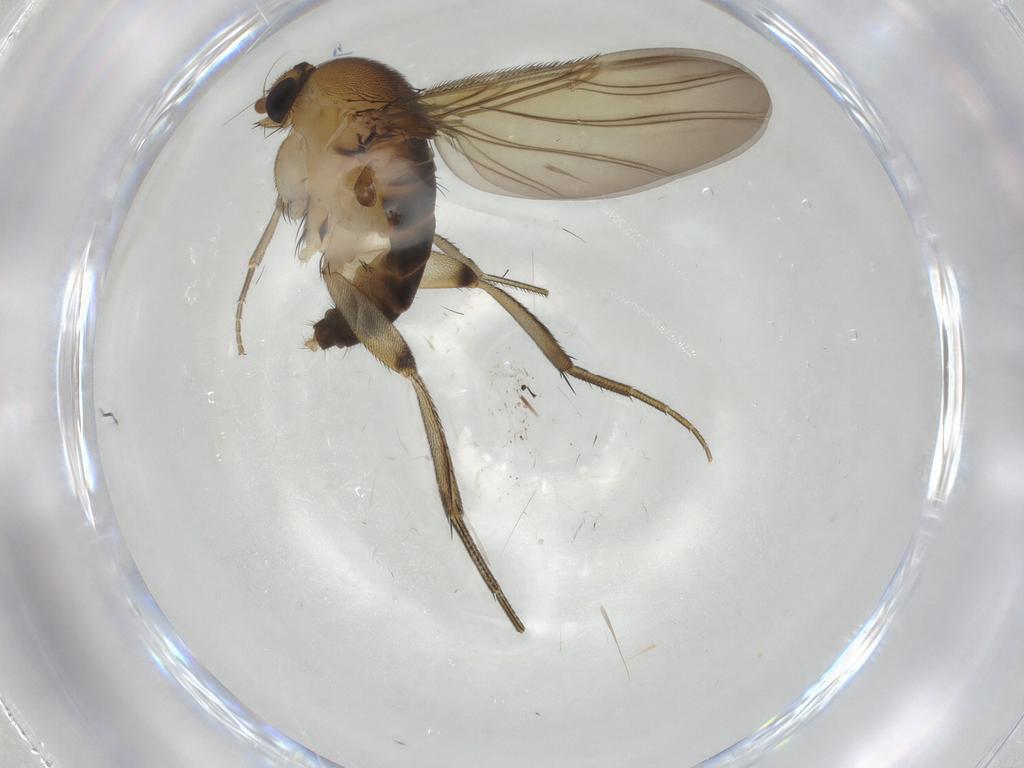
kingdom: Animalia
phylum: Arthropoda
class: Insecta
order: Diptera
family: Phoridae
